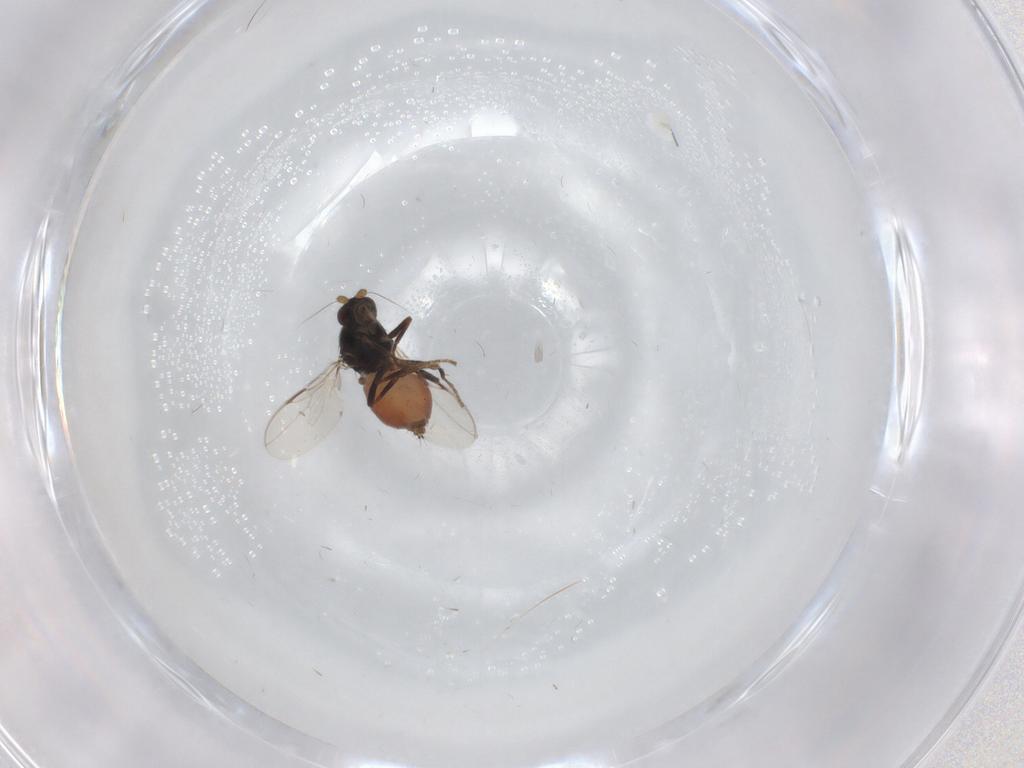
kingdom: Animalia
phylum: Arthropoda
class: Insecta
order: Diptera
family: Sphaeroceridae
